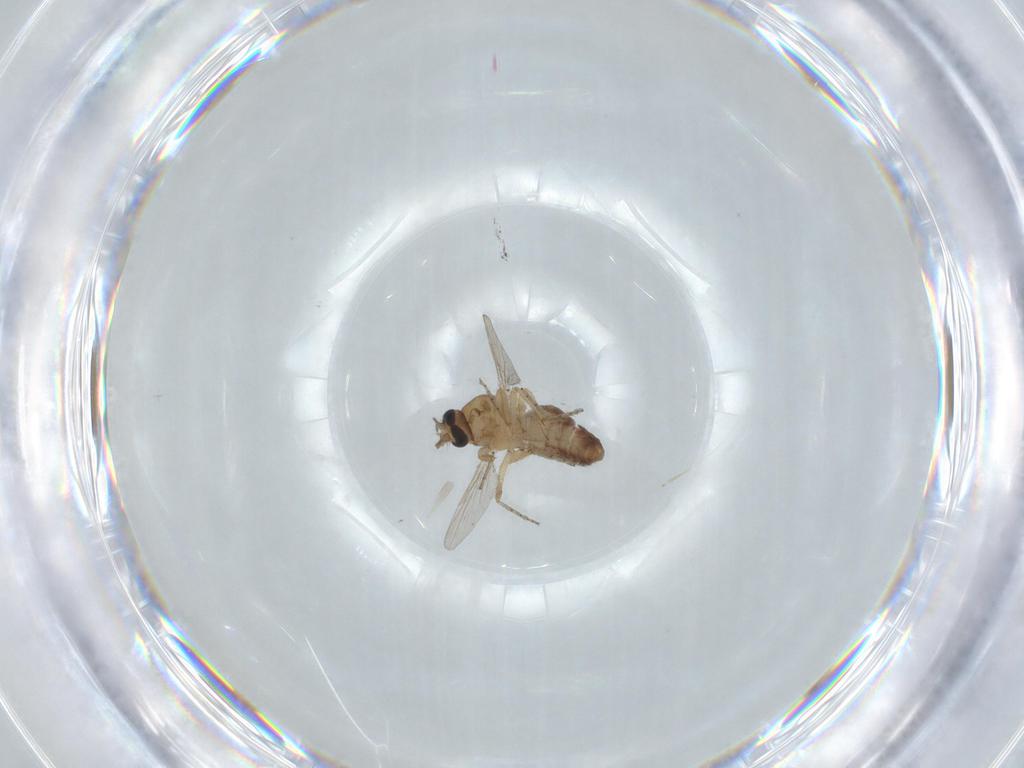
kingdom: Animalia
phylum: Arthropoda
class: Insecta
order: Diptera
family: Ceratopogonidae
